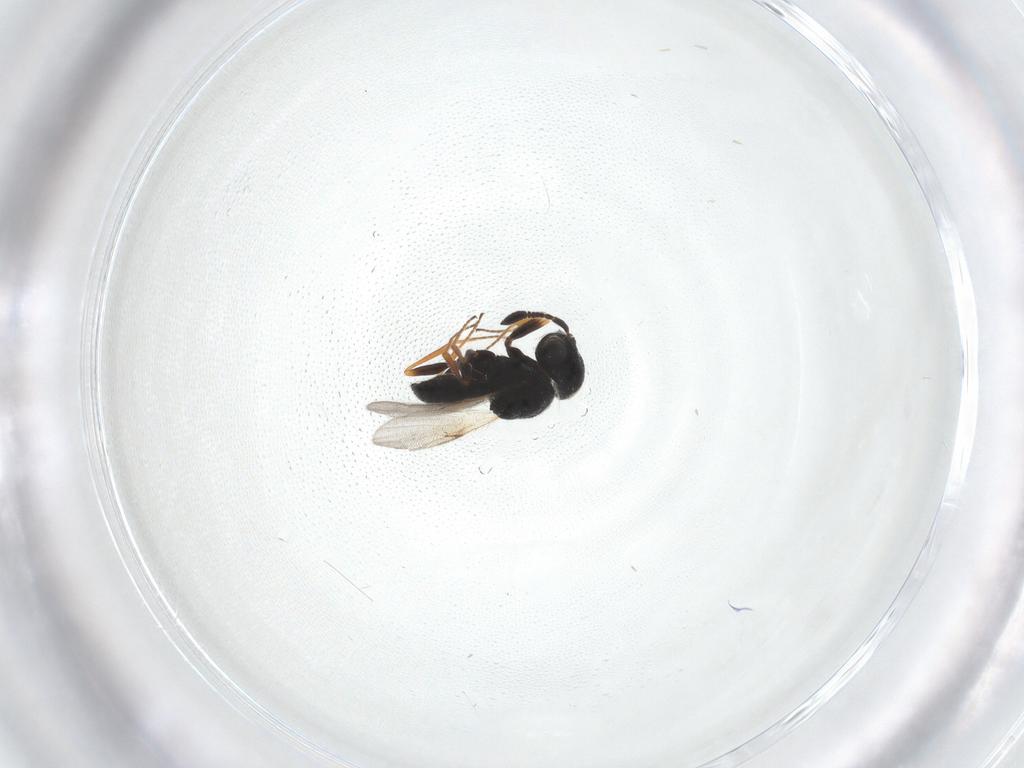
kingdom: Animalia
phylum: Arthropoda
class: Insecta
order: Hymenoptera
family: Scelionidae
